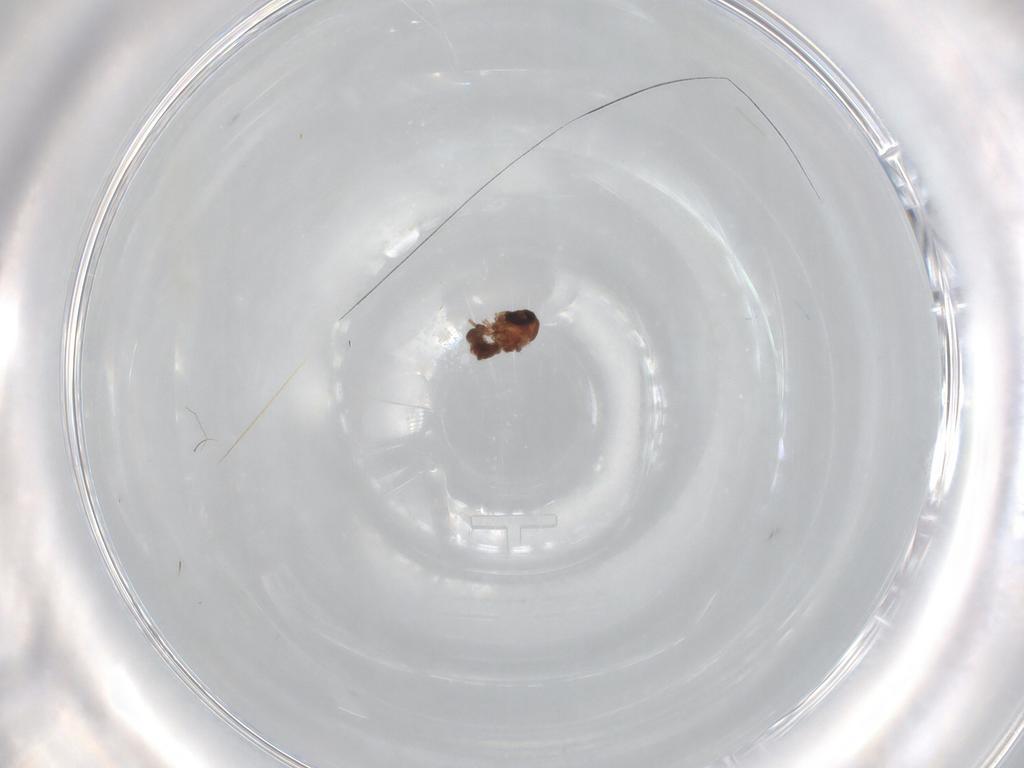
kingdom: Animalia
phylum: Arthropoda
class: Insecta
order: Diptera
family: Psychodidae
